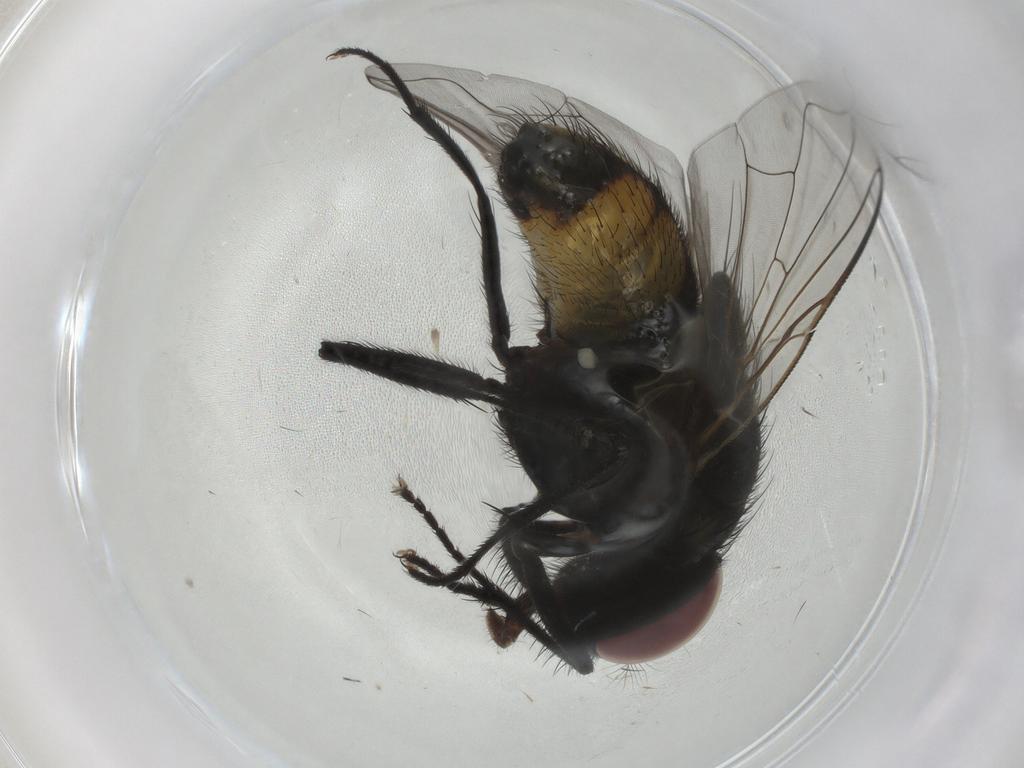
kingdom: Animalia
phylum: Arthropoda
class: Insecta
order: Diptera
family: Muscidae
